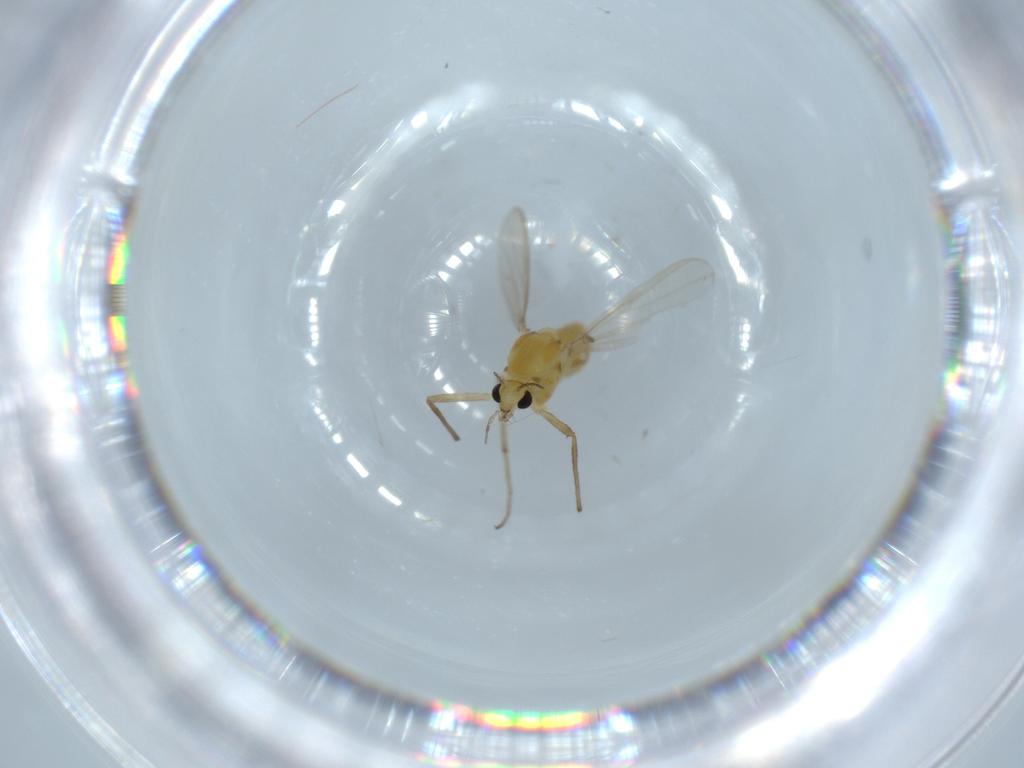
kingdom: Animalia
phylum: Arthropoda
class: Insecta
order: Diptera
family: Chironomidae
